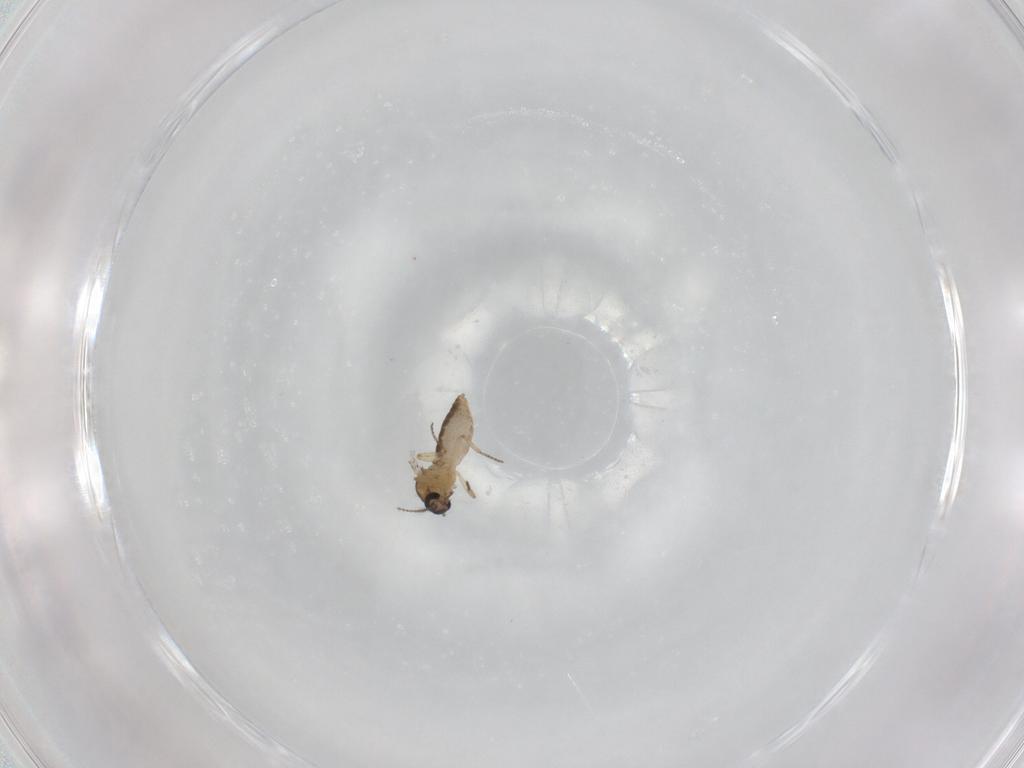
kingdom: Animalia
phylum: Arthropoda
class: Insecta
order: Diptera
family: Ceratopogonidae
